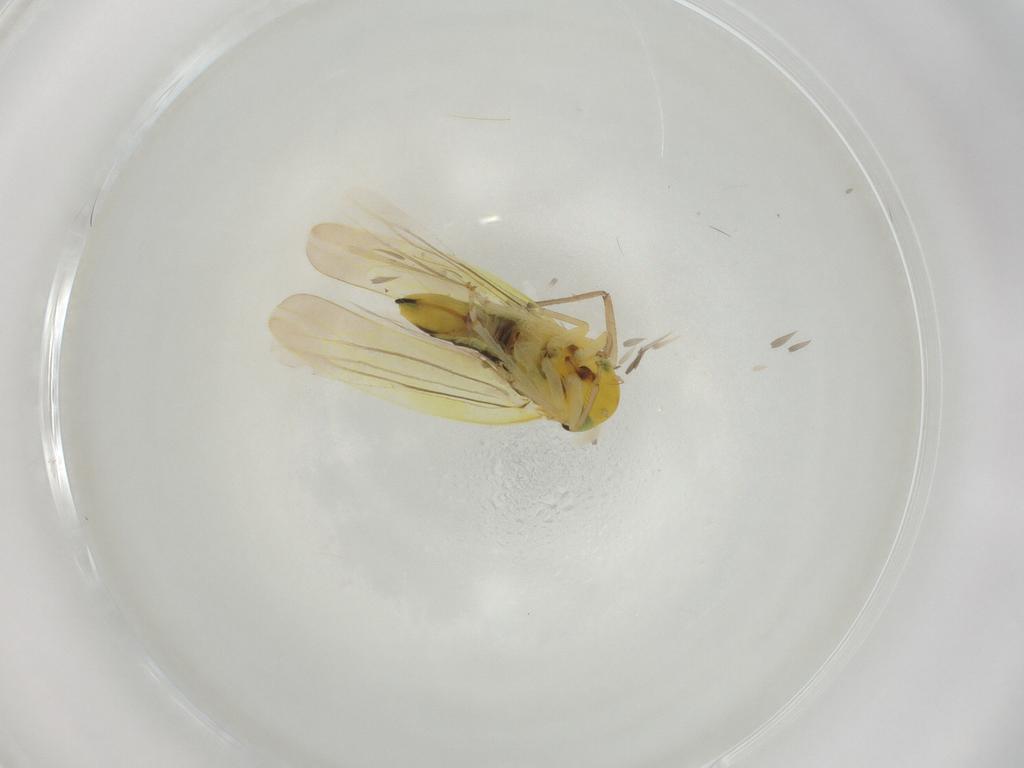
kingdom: Animalia
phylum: Arthropoda
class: Insecta
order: Hemiptera
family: Cicadellidae
